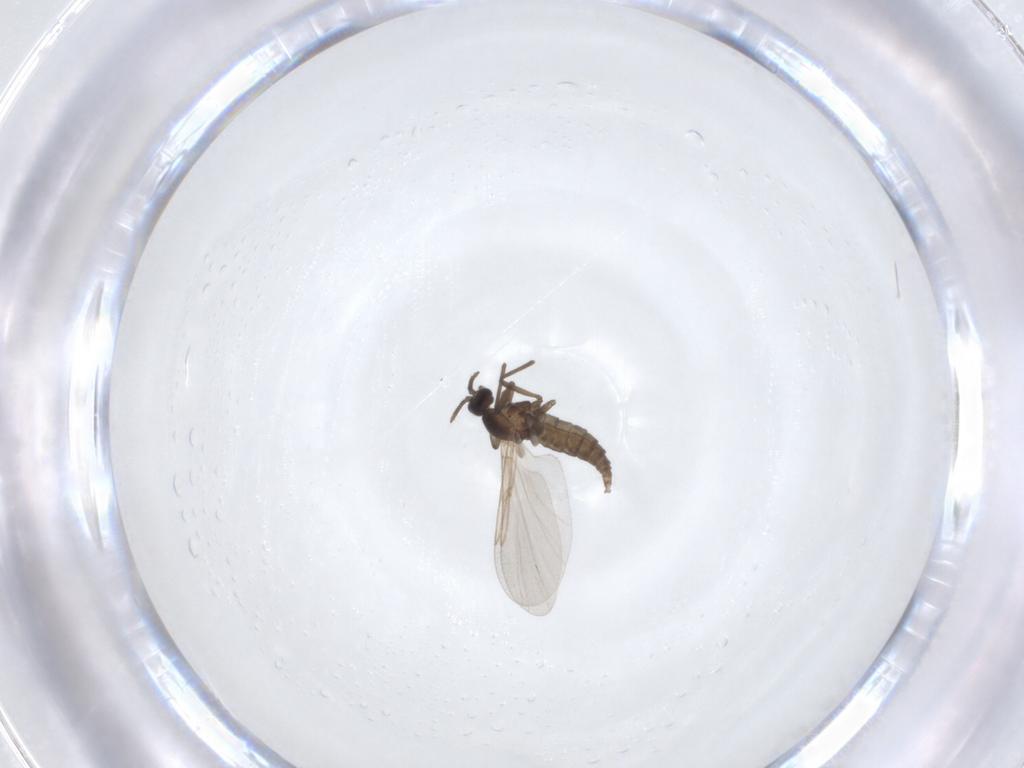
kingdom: Animalia
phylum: Arthropoda
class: Insecta
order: Diptera
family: Cecidomyiidae
